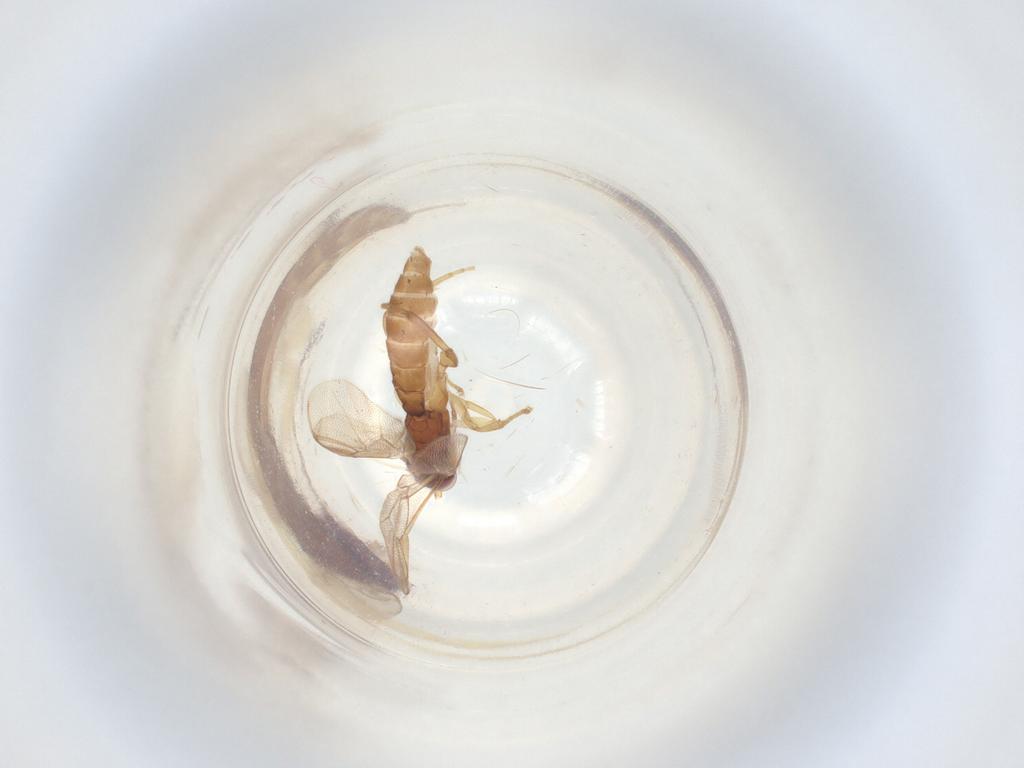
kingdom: Animalia
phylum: Arthropoda
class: Insecta
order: Hymenoptera
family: Ichneumonidae
